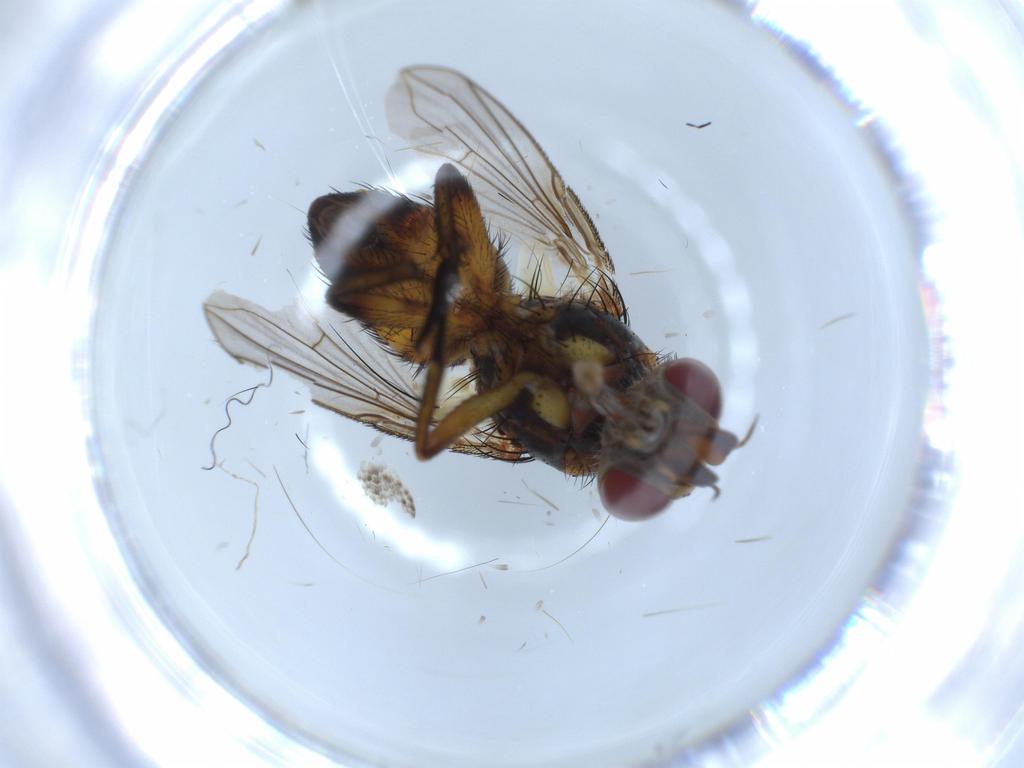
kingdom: Animalia
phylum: Arthropoda
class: Insecta
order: Diptera
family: Tachinidae
